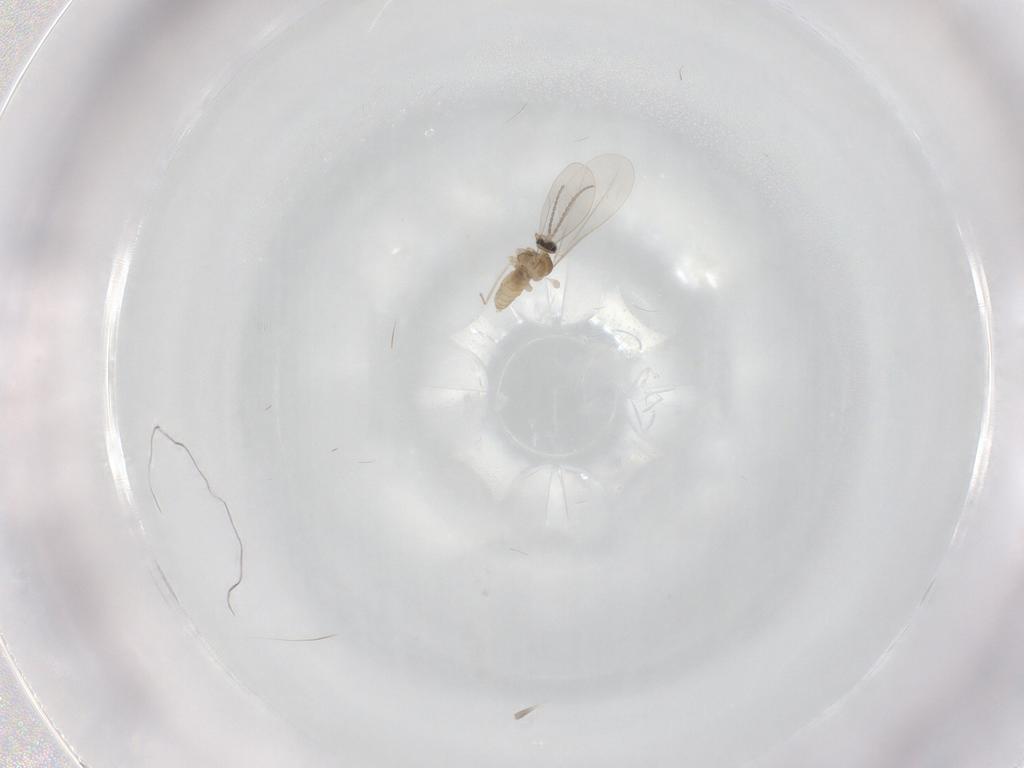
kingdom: Animalia
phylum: Arthropoda
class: Insecta
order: Diptera
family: Cecidomyiidae
